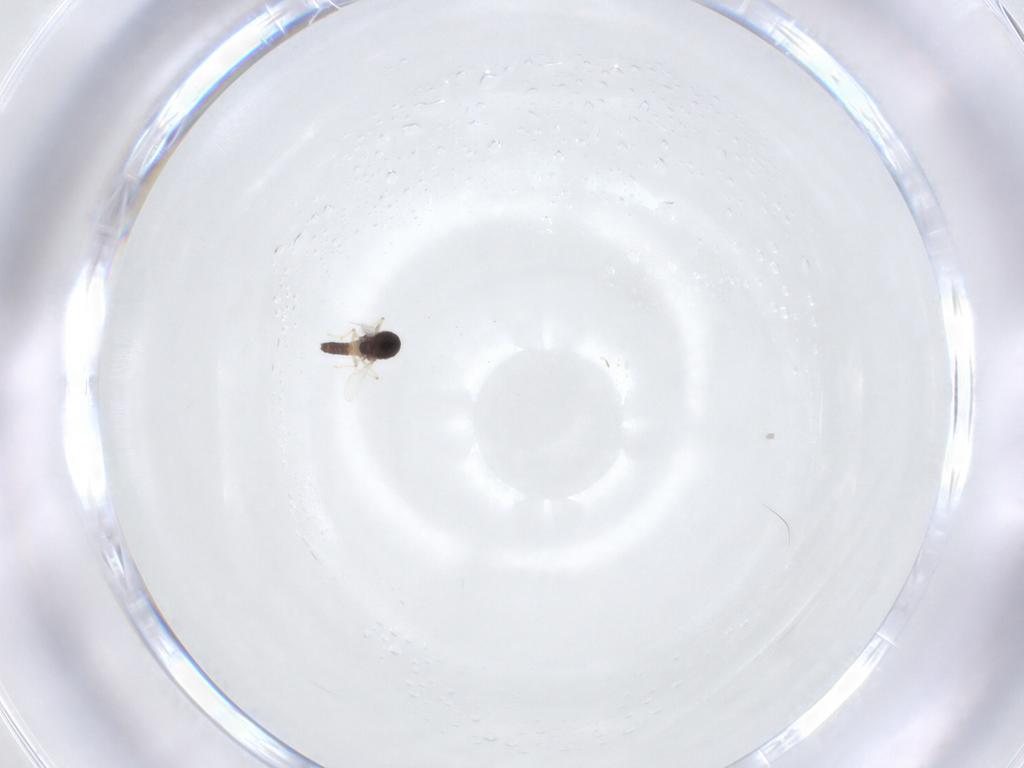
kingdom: Animalia
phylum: Arthropoda
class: Insecta
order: Diptera
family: Chironomidae
